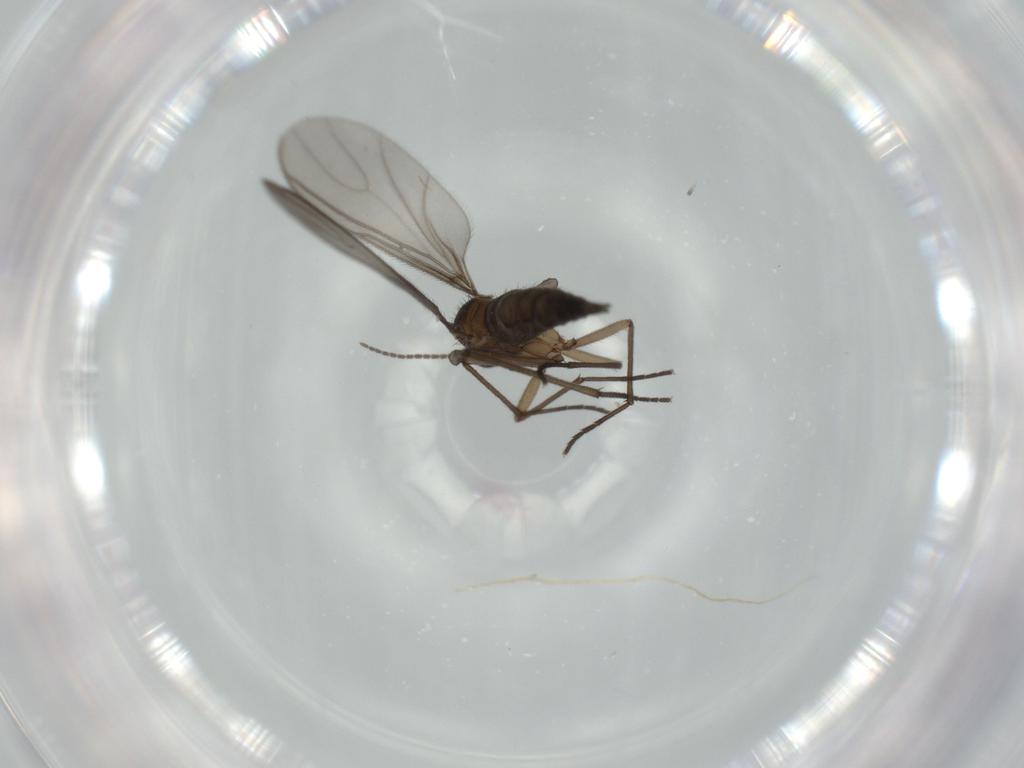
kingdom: Animalia
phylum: Arthropoda
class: Insecta
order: Diptera
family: Sciaridae
